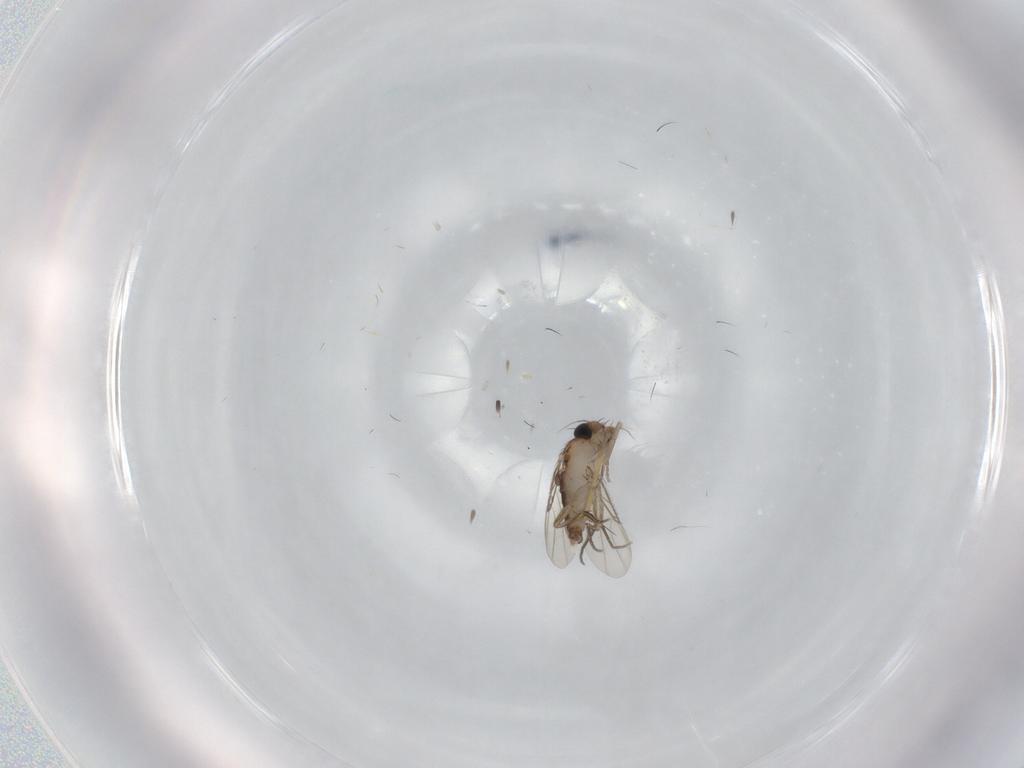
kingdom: Animalia
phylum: Arthropoda
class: Insecta
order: Diptera
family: Phoridae
